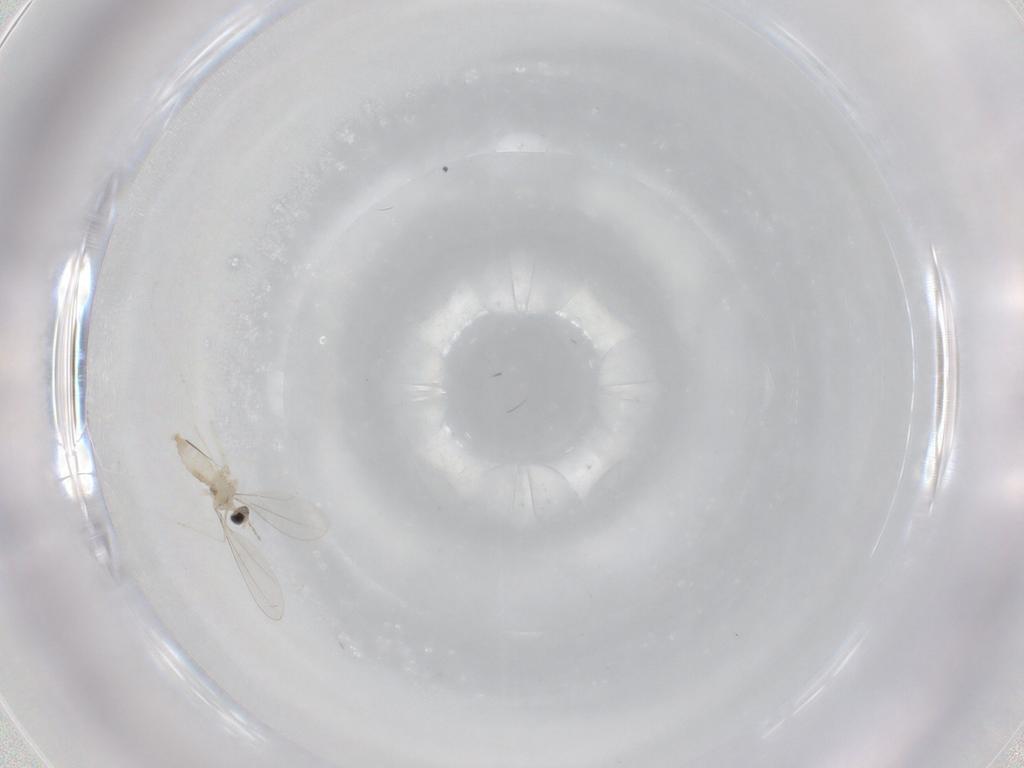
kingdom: Animalia
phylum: Arthropoda
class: Insecta
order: Diptera
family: Cecidomyiidae
